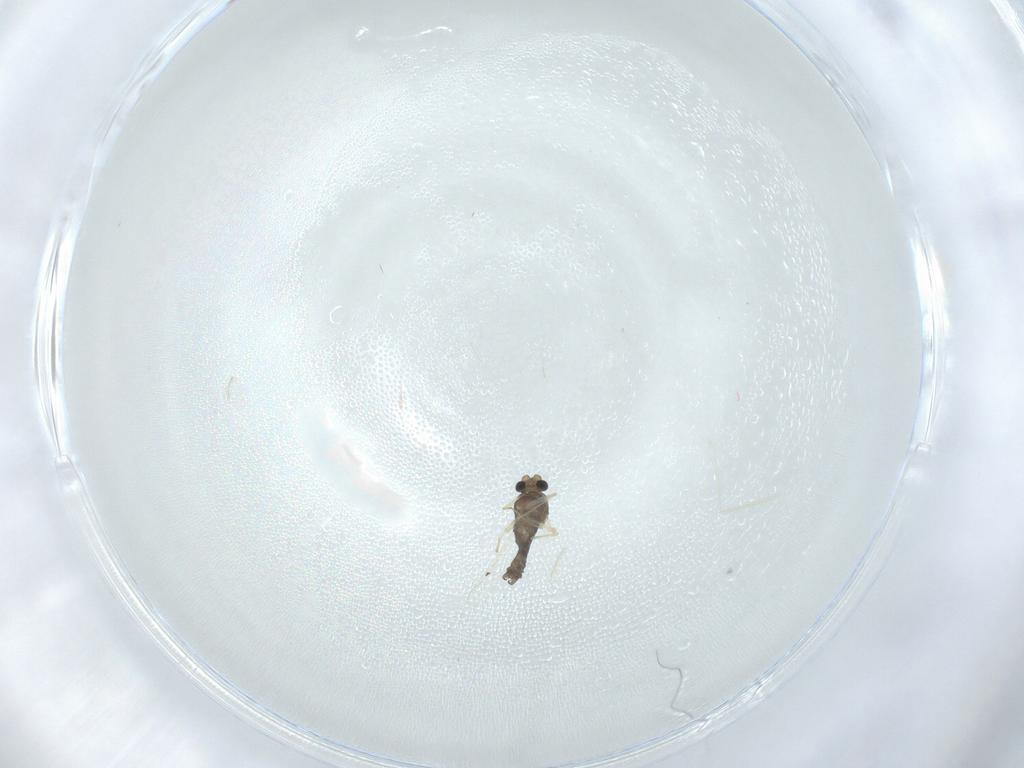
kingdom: Animalia
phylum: Arthropoda
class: Insecta
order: Diptera
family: Chironomidae
